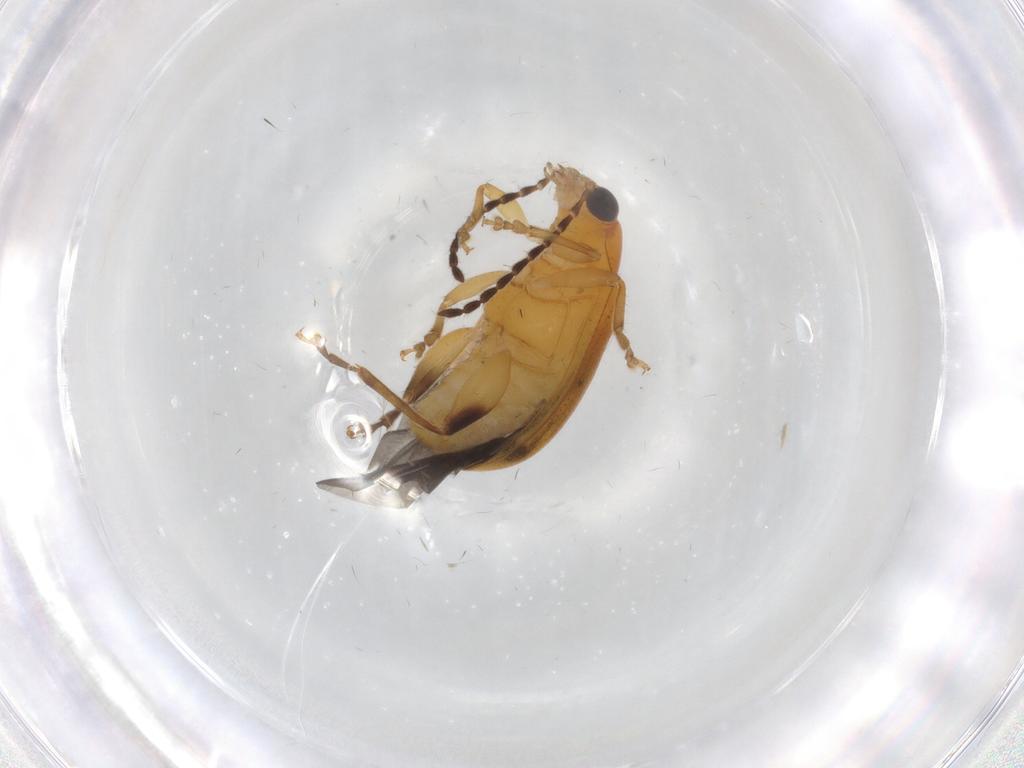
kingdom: Animalia
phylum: Arthropoda
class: Insecta
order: Coleoptera
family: Chrysomelidae
